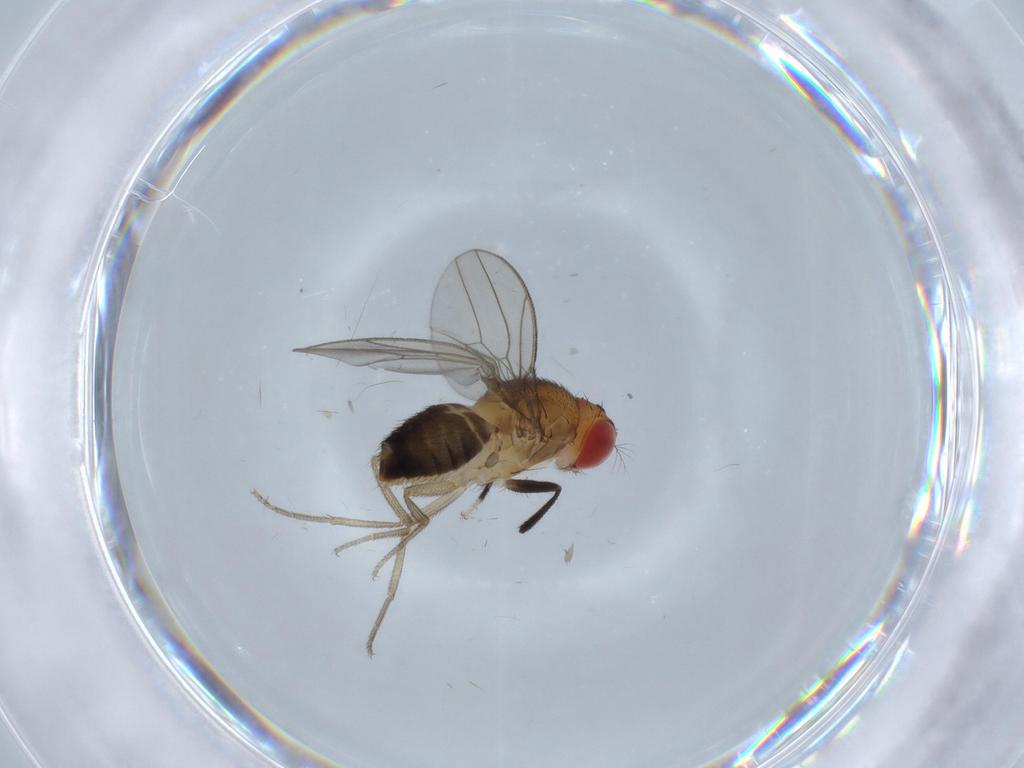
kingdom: Animalia
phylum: Arthropoda
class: Insecta
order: Diptera
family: Drosophilidae
